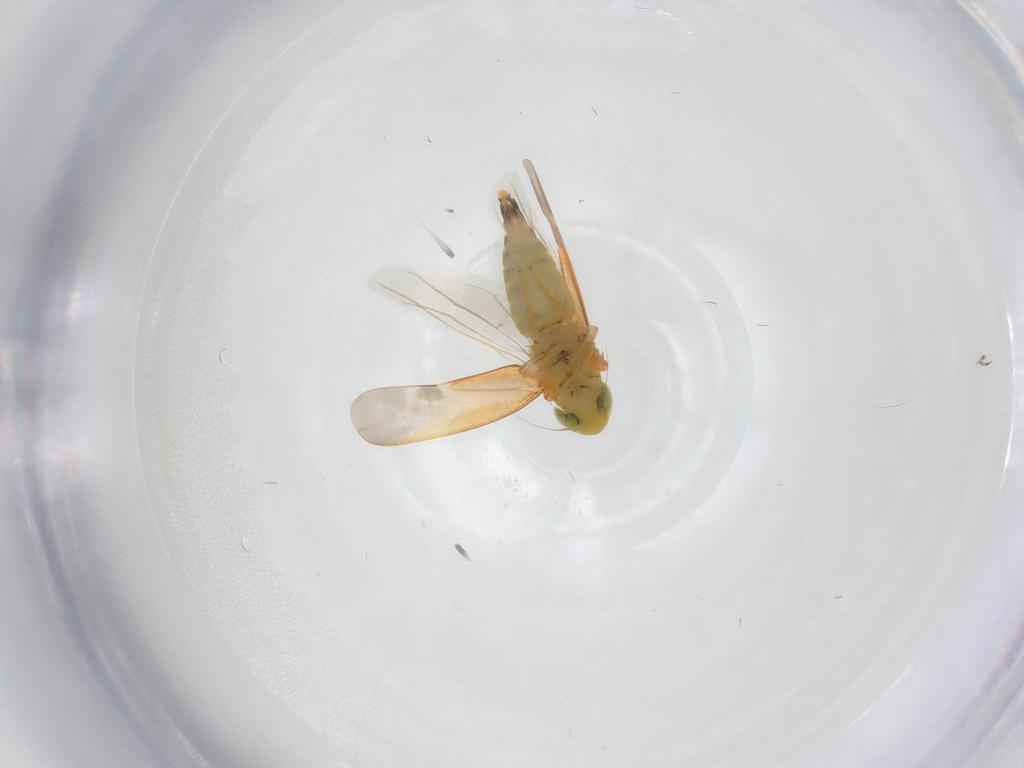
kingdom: Animalia
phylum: Arthropoda
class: Insecta
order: Hemiptera
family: Cicadellidae
